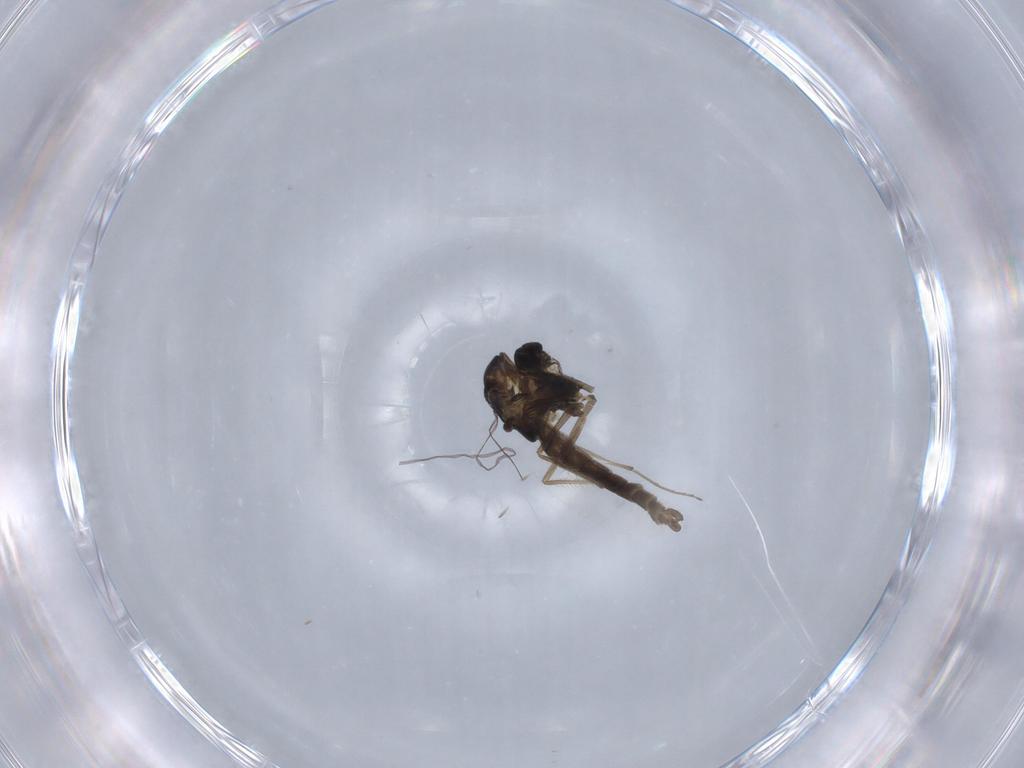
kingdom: Animalia
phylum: Arthropoda
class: Insecta
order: Diptera
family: Chironomidae
